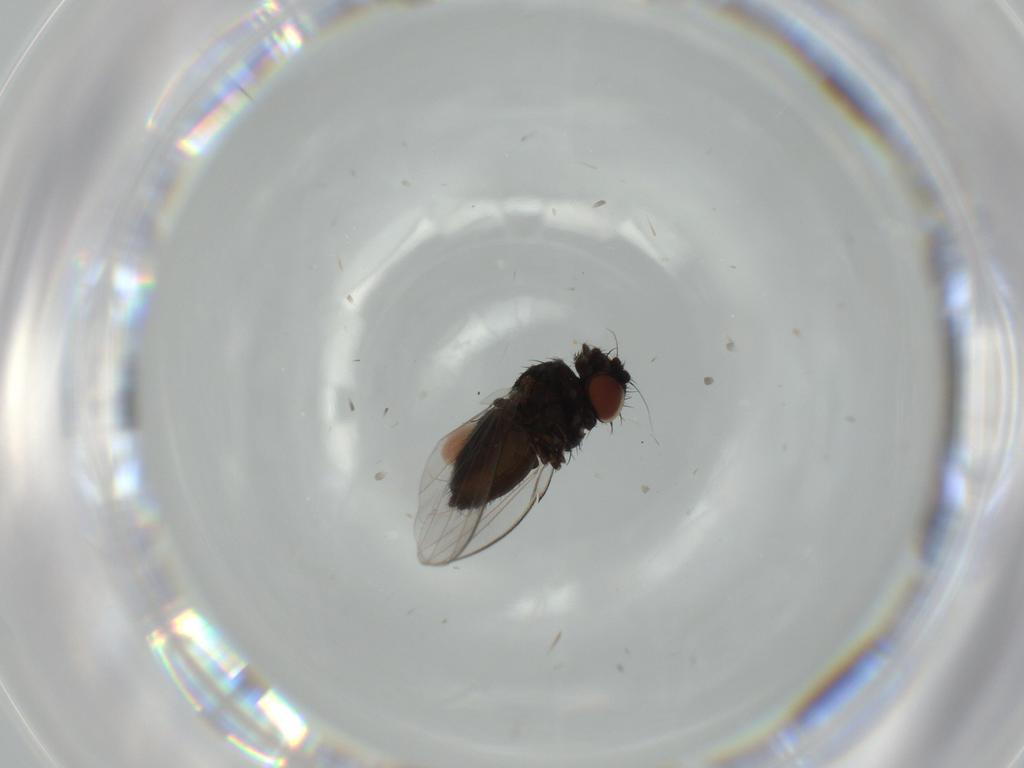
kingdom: Animalia
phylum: Arthropoda
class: Insecta
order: Diptera
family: Milichiidae
